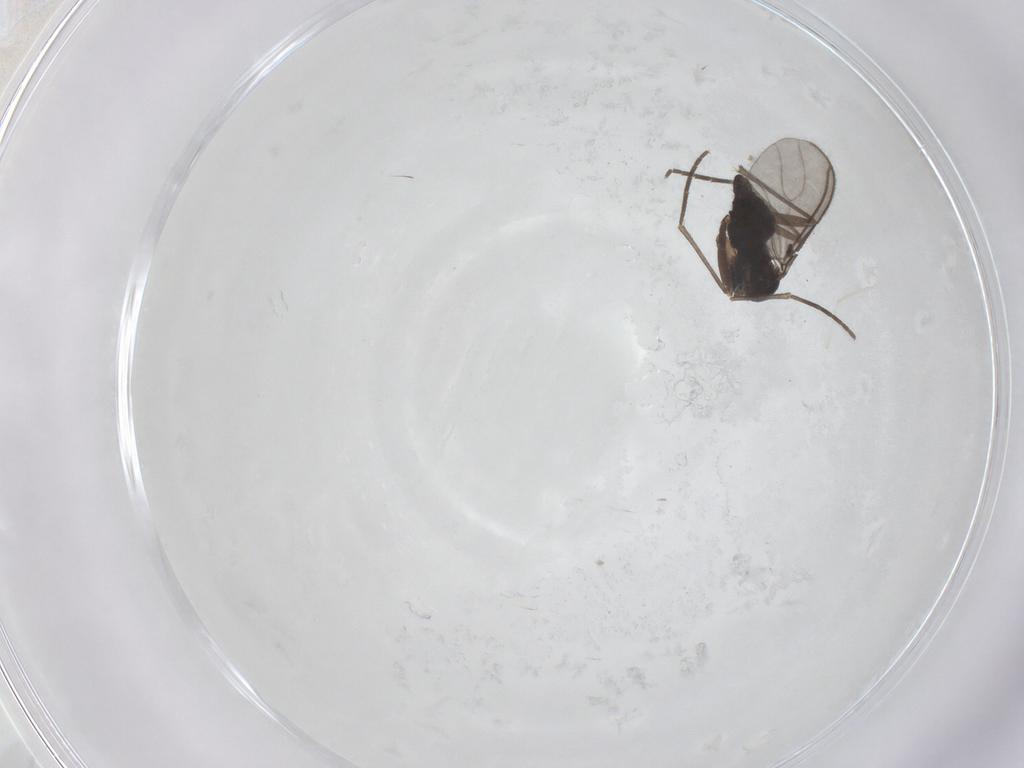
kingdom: Animalia
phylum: Arthropoda
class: Insecta
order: Diptera
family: Sciaridae
